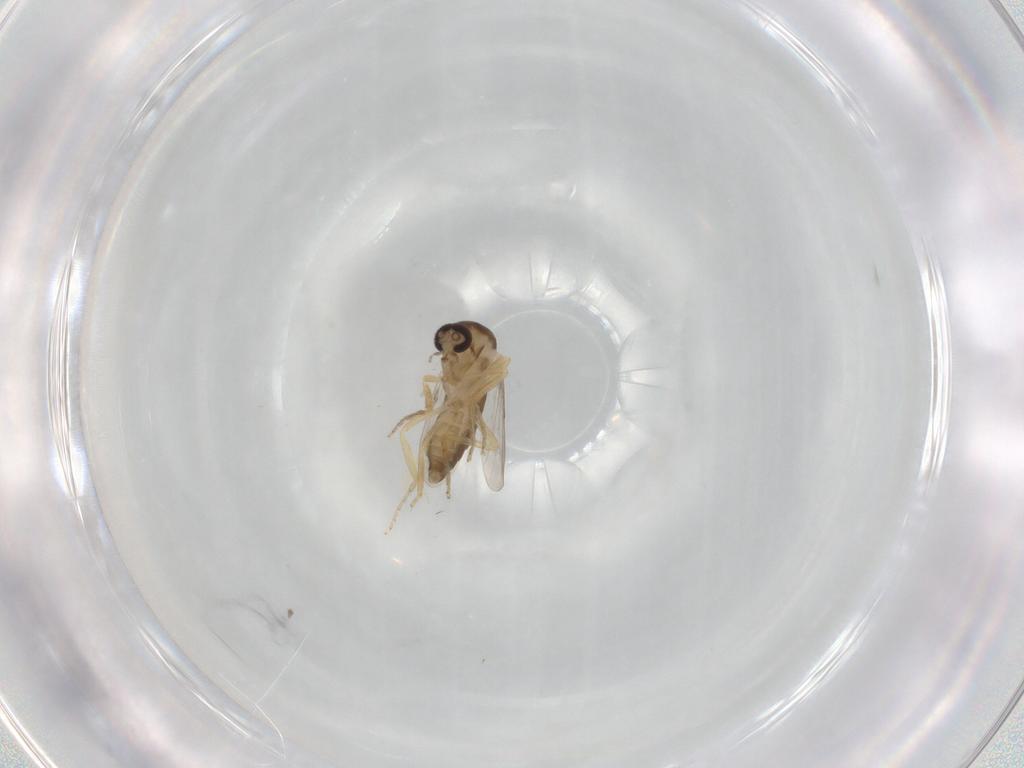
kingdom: Animalia
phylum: Arthropoda
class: Insecta
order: Diptera
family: Ceratopogonidae
